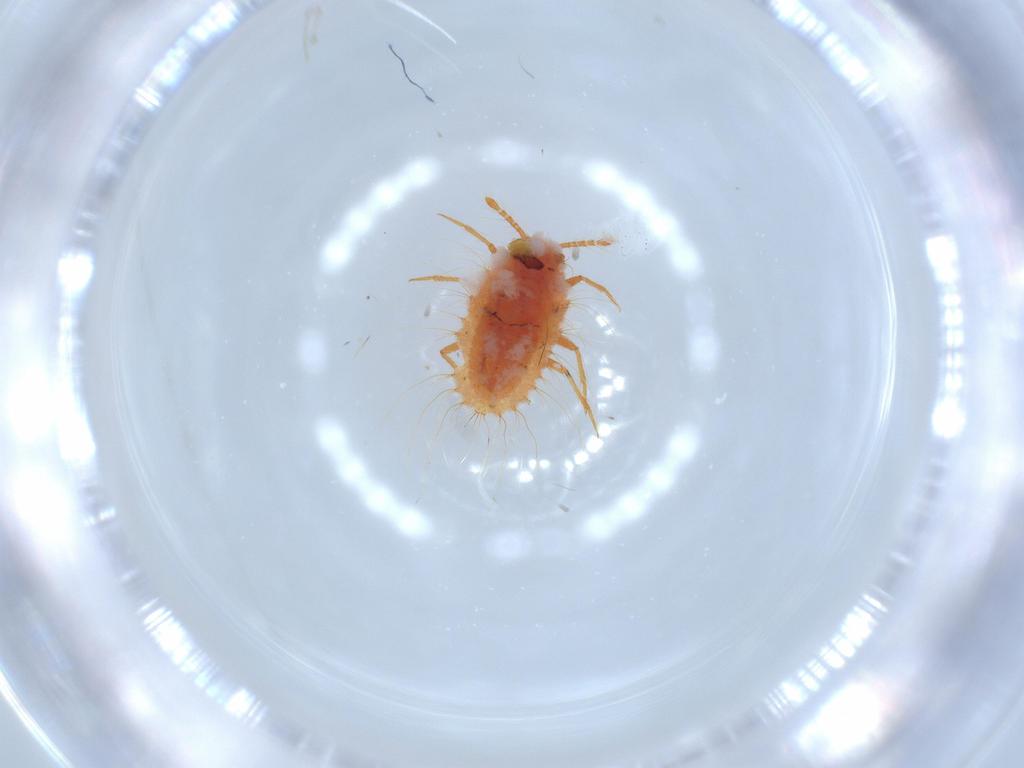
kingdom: Animalia
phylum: Arthropoda
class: Insecta
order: Hemiptera
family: Coccoidea_incertae_sedis
